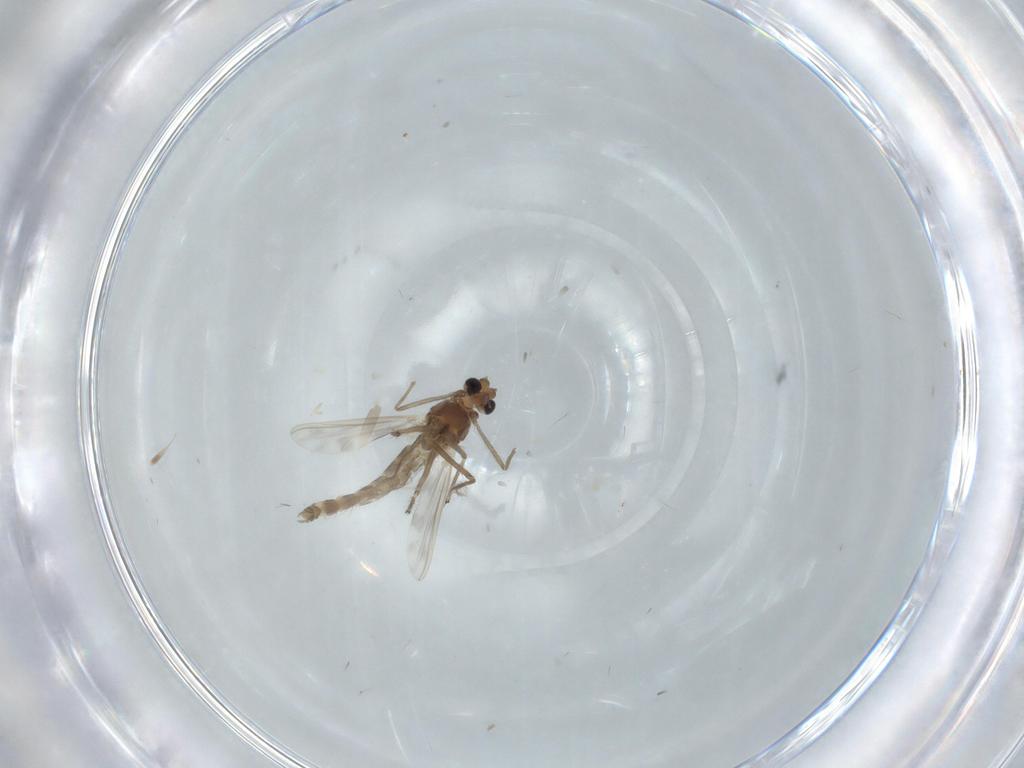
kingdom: Animalia
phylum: Arthropoda
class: Insecta
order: Diptera
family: Chironomidae
